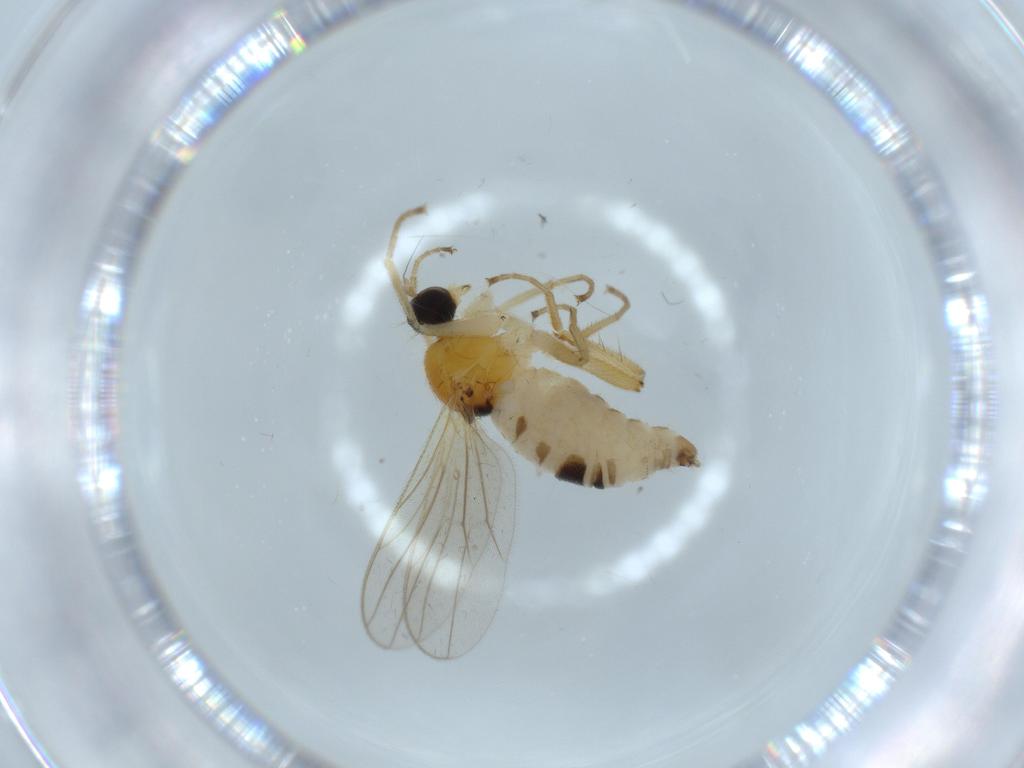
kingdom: Animalia
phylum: Arthropoda
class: Insecta
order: Diptera
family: Hybotidae
